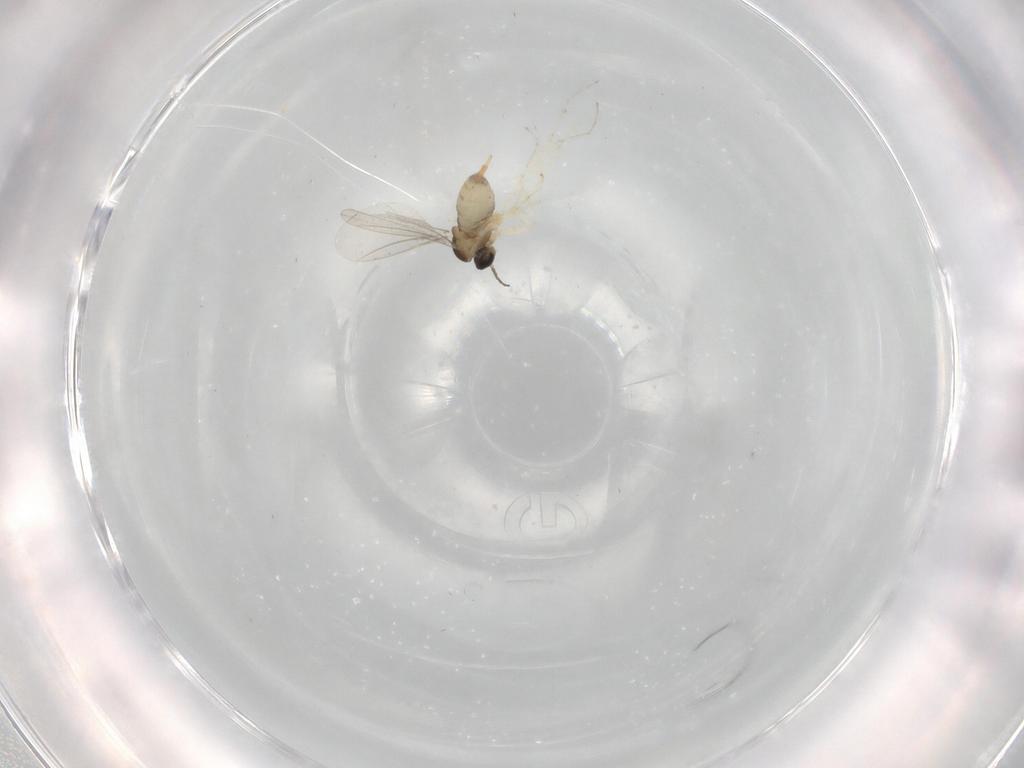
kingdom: Animalia
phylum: Arthropoda
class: Insecta
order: Diptera
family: Cecidomyiidae
